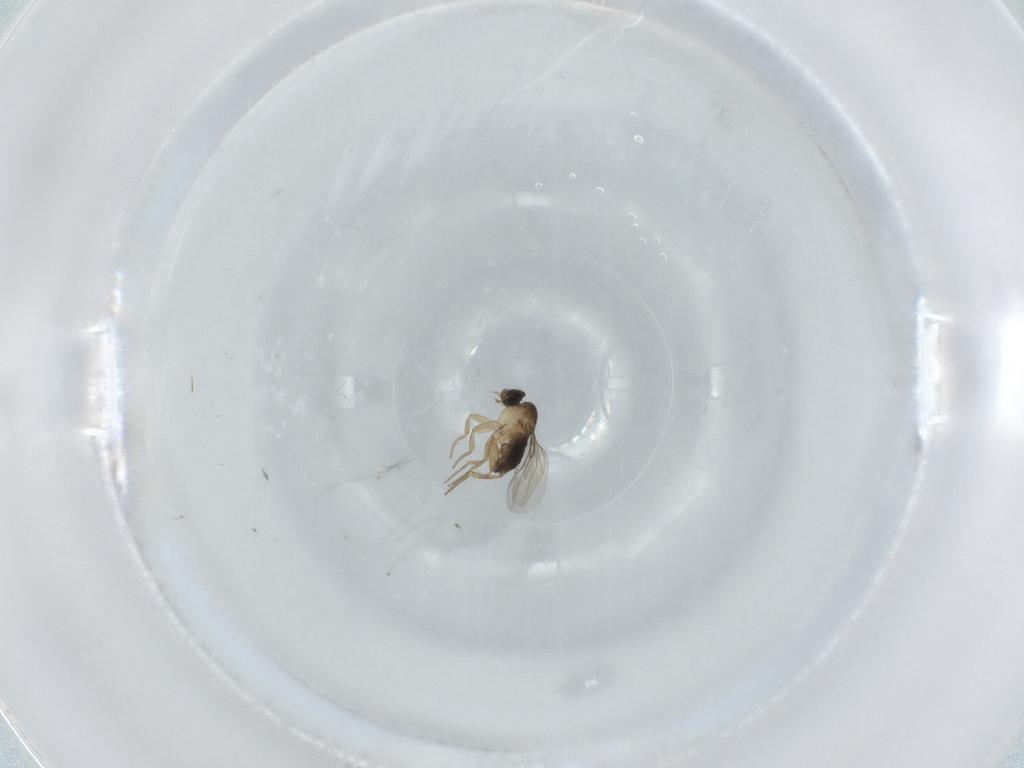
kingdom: Animalia
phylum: Arthropoda
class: Insecta
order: Diptera
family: Phoridae
